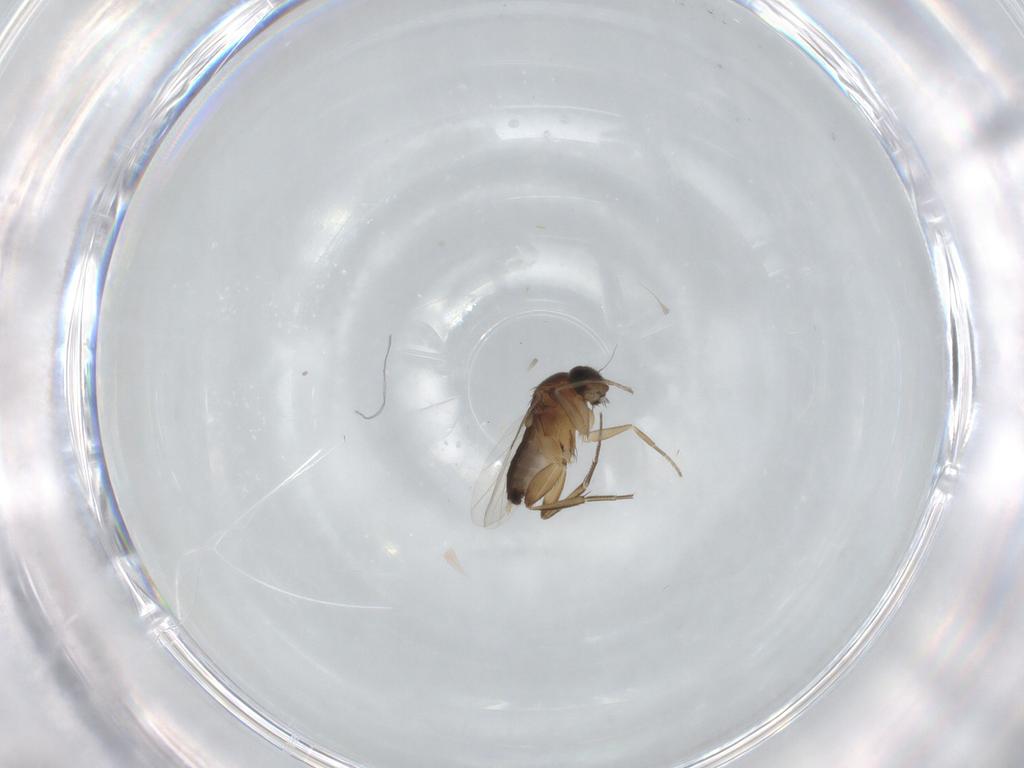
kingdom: Animalia
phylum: Arthropoda
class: Insecta
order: Diptera
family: Phoridae
